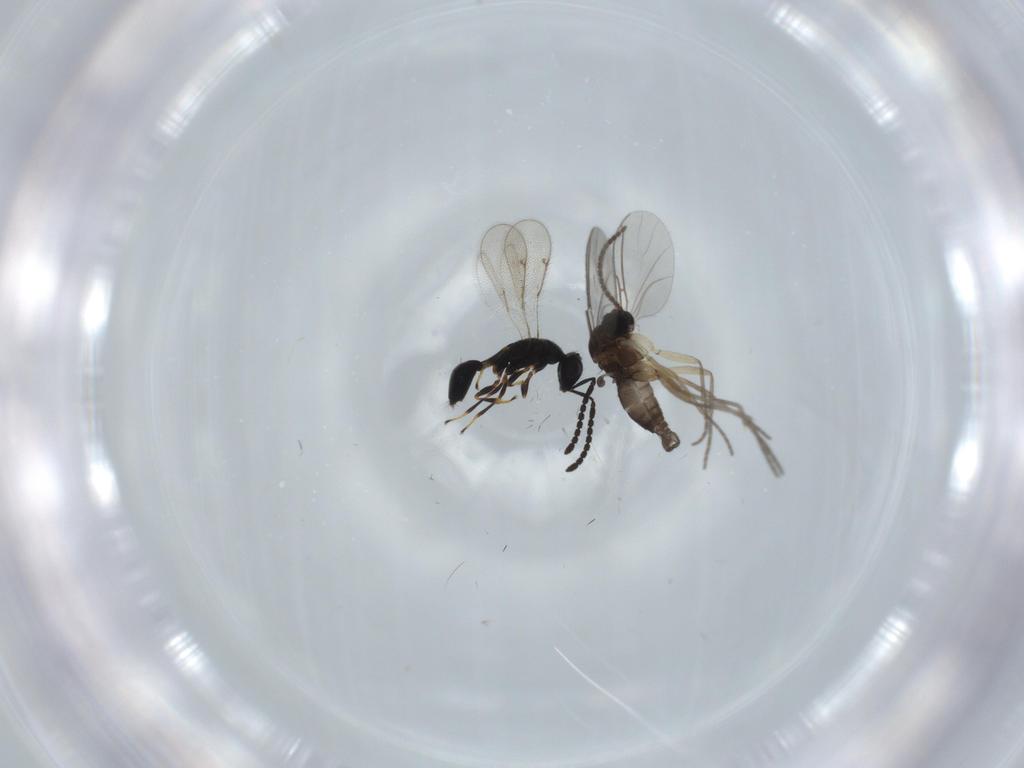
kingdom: Animalia
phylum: Arthropoda
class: Insecta
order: Diptera
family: Sciaridae
